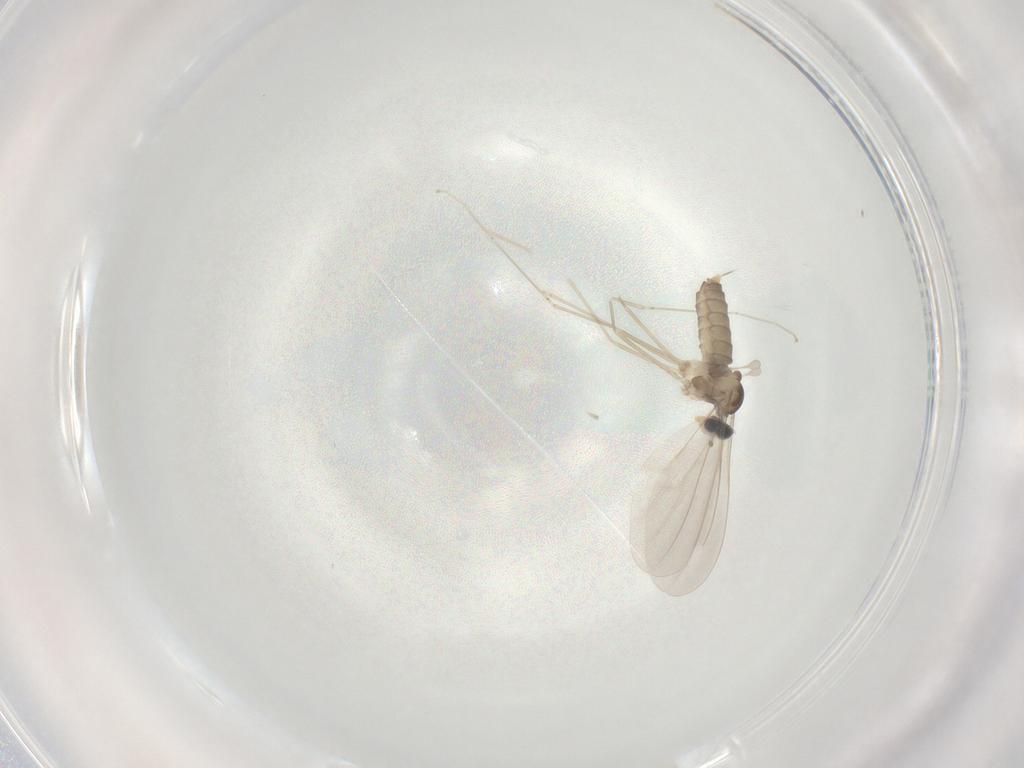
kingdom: Animalia
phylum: Arthropoda
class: Insecta
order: Diptera
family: Cecidomyiidae
